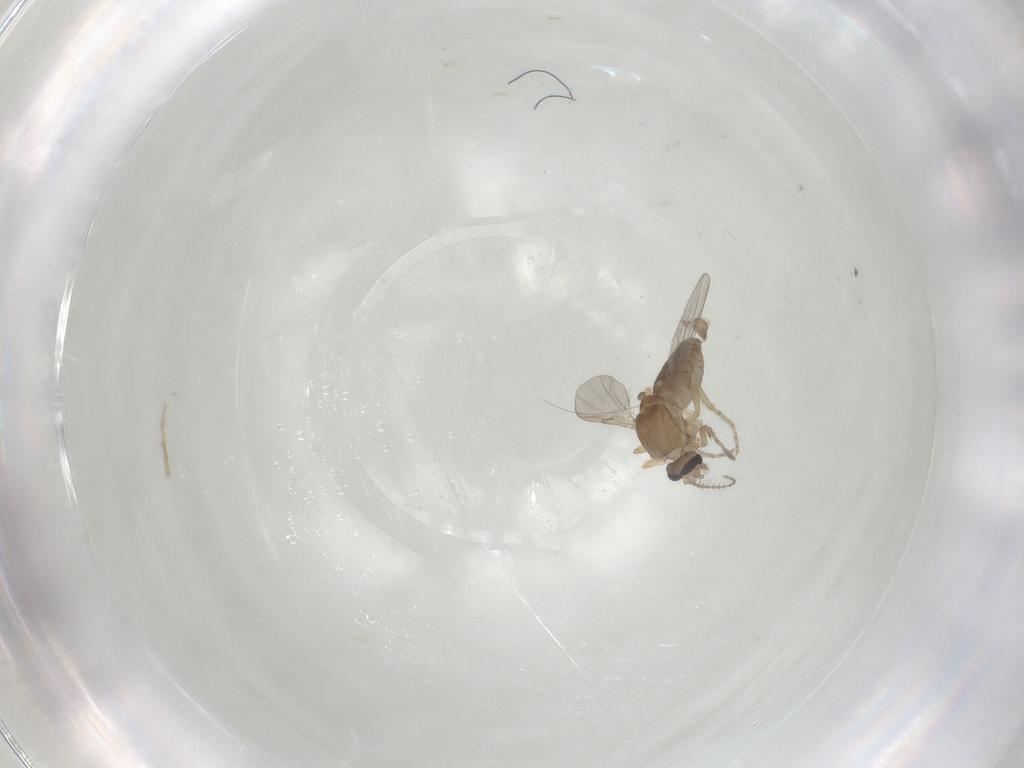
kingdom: Animalia
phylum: Arthropoda
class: Insecta
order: Diptera
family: Ceratopogonidae
